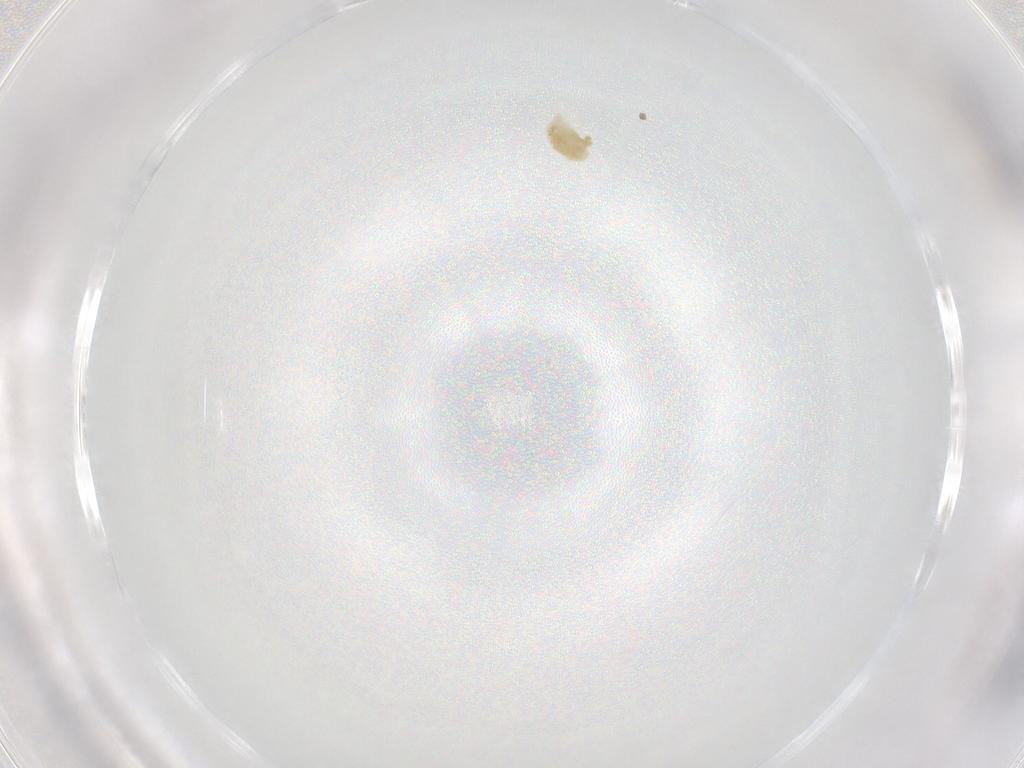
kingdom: Animalia
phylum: Arthropoda
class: Arachnida
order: Trombidiformes
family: Eupodidae
